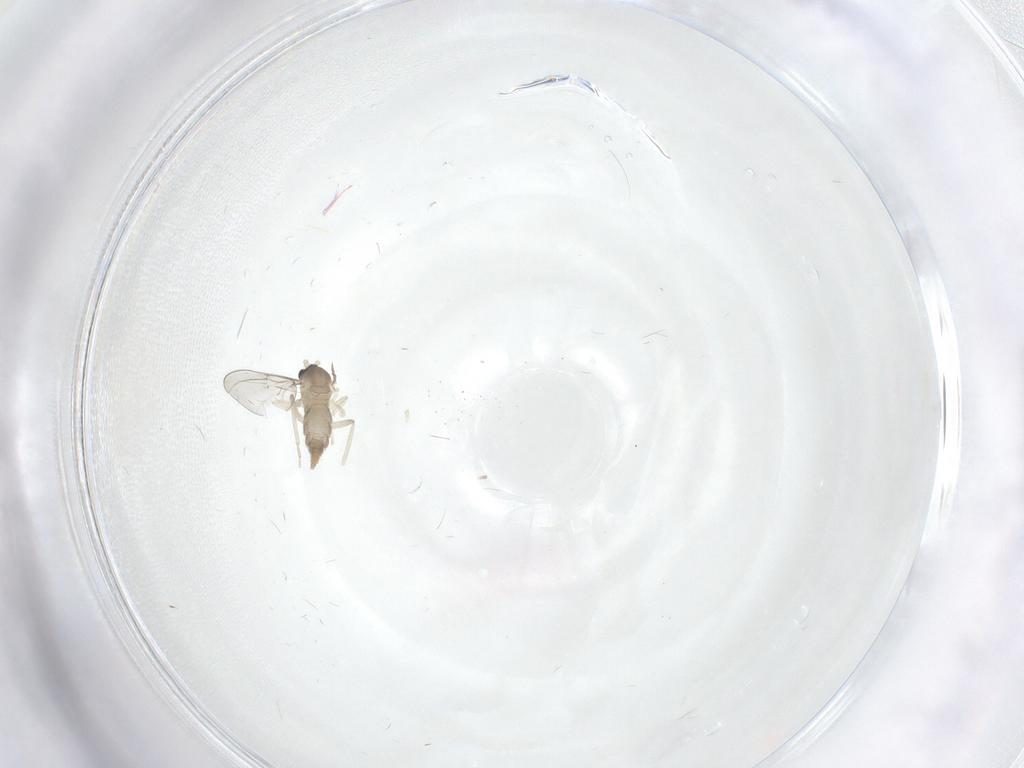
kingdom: Animalia
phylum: Arthropoda
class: Insecta
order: Diptera
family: Cecidomyiidae
